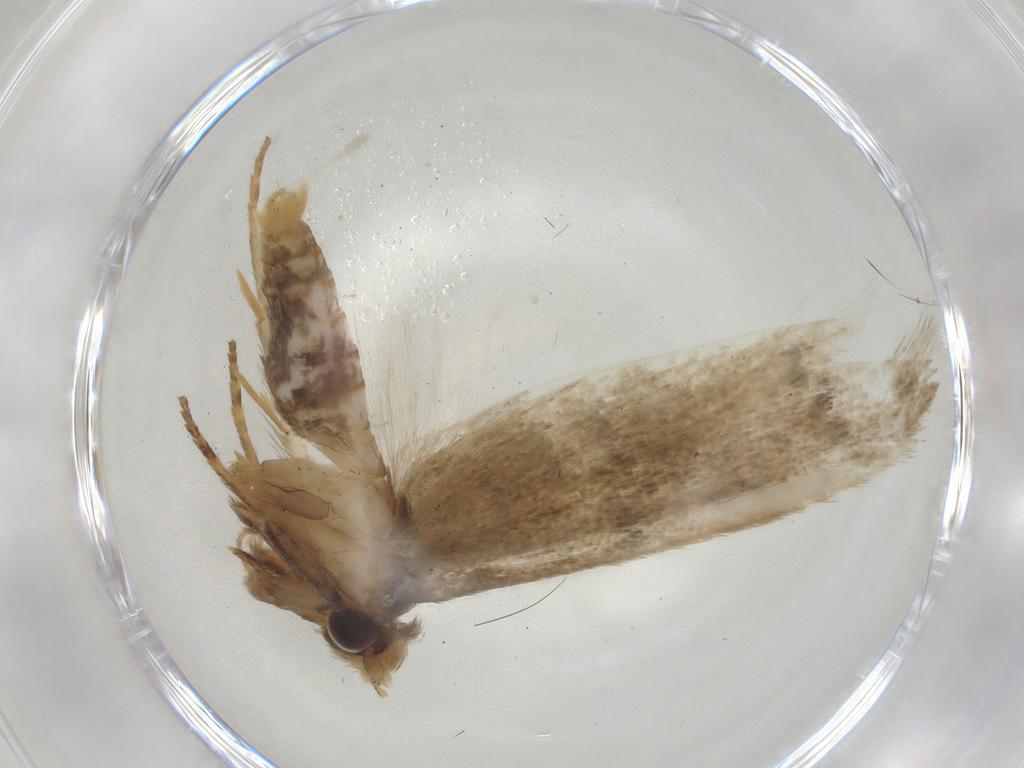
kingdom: Animalia
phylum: Arthropoda
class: Insecta
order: Lepidoptera
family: Coleophoridae
